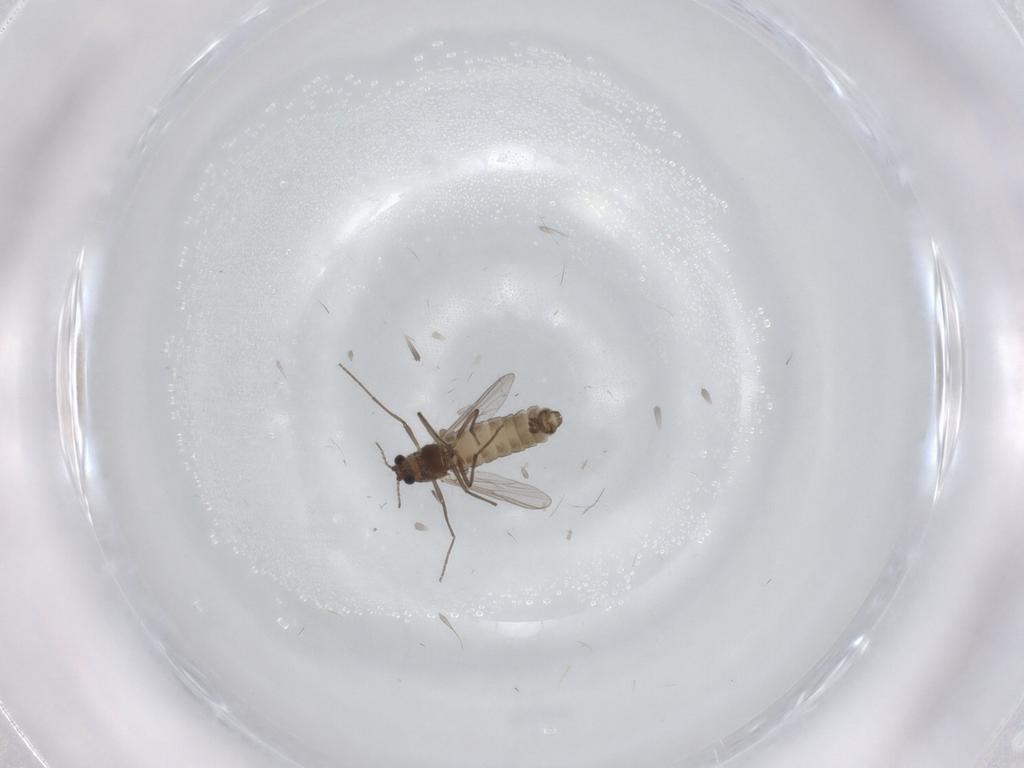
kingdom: Animalia
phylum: Arthropoda
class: Insecta
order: Diptera
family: Chironomidae
